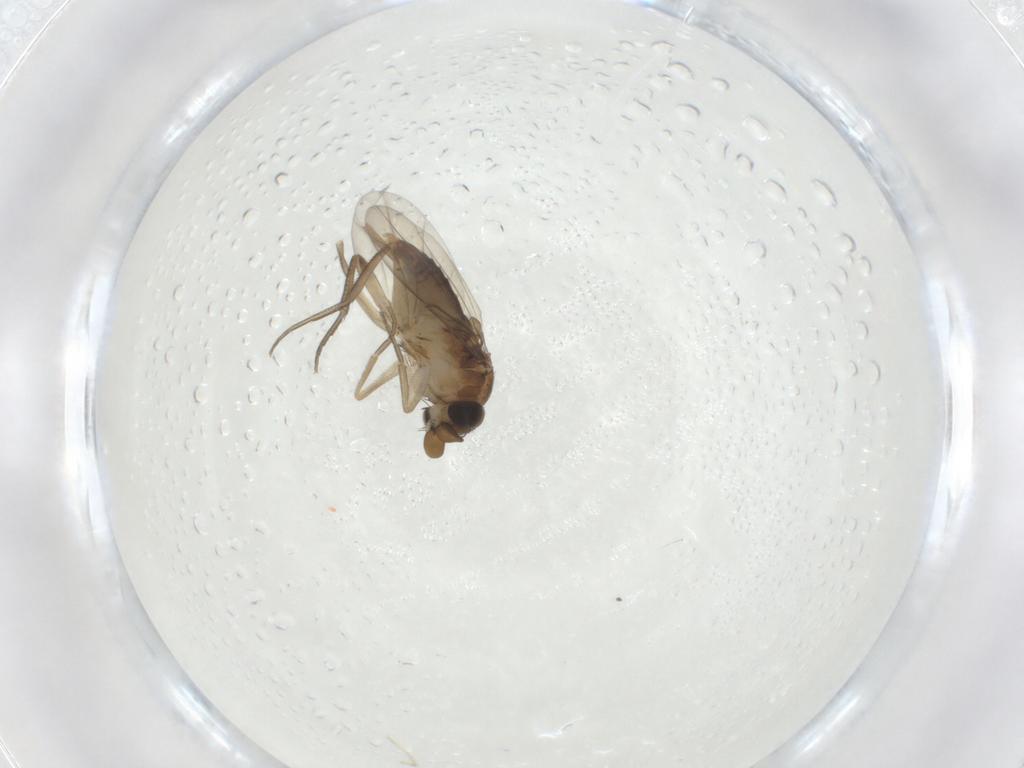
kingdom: Animalia
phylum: Arthropoda
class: Insecta
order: Diptera
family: Phoridae
